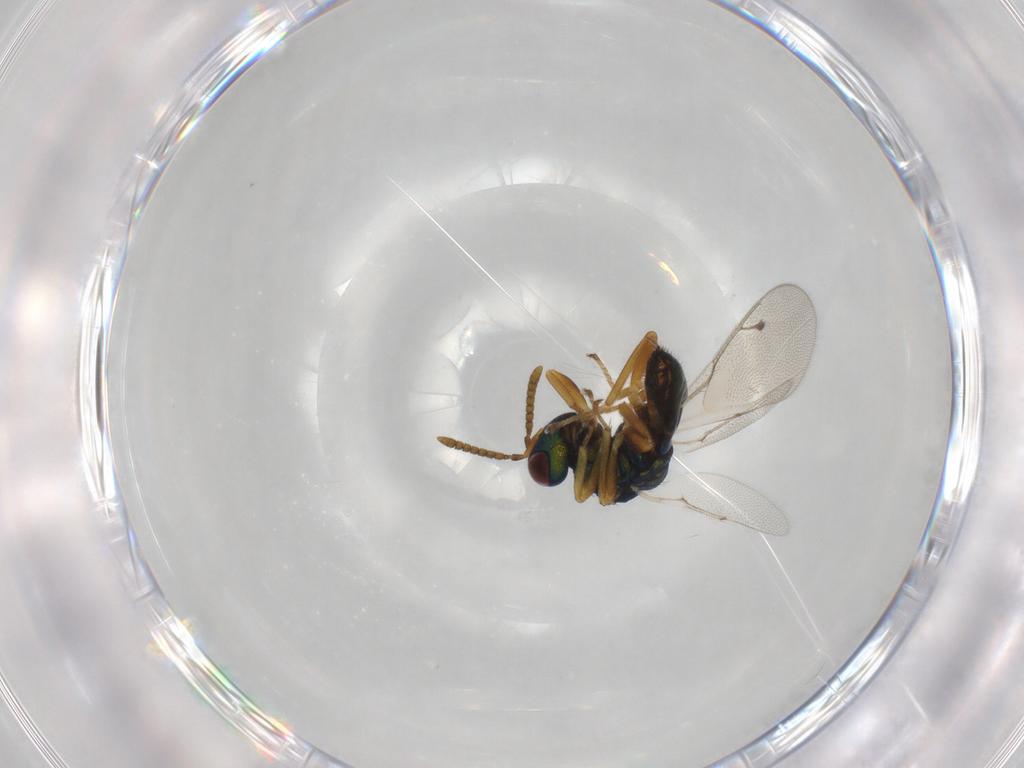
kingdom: Animalia
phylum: Arthropoda
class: Insecta
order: Hymenoptera
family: Pteromalidae
